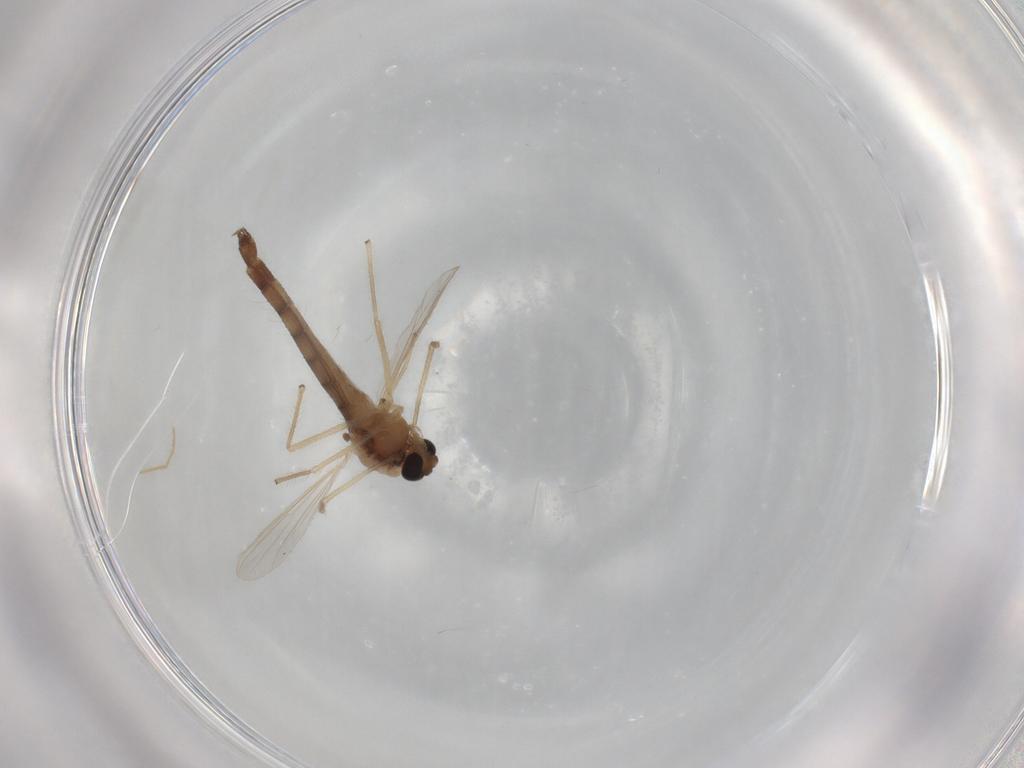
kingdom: Animalia
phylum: Arthropoda
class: Insecta
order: Diptera
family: Chironomidae
